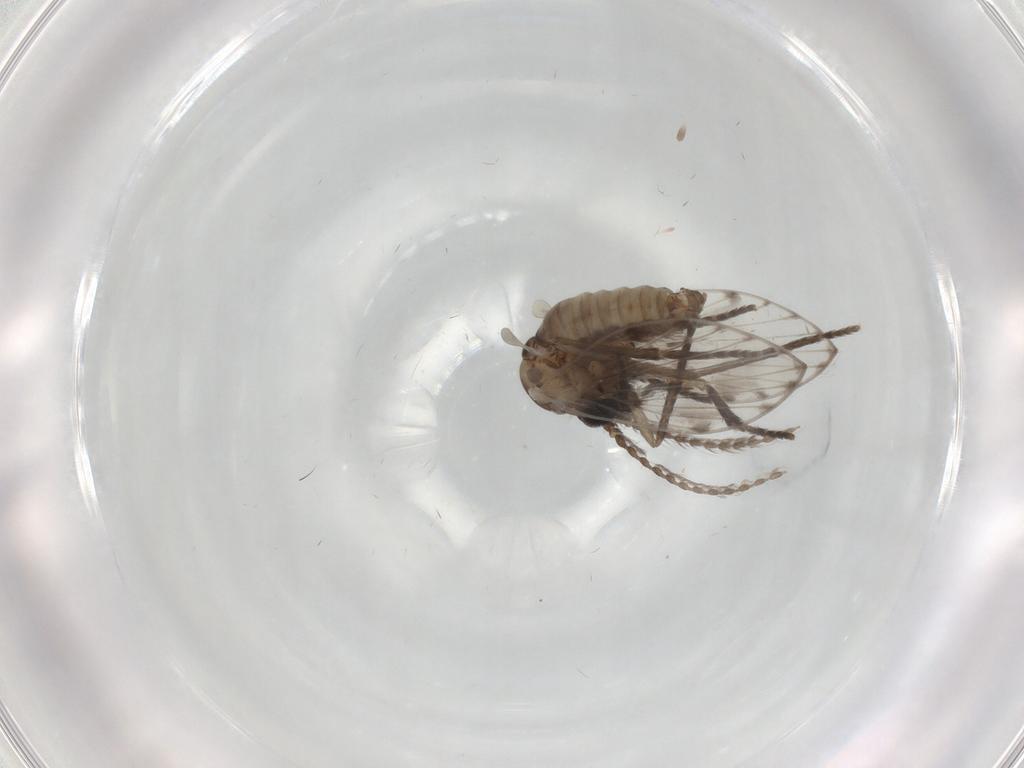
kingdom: Animalia
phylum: Arthropoda
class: Insecta
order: Diptera
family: Psychodidae
